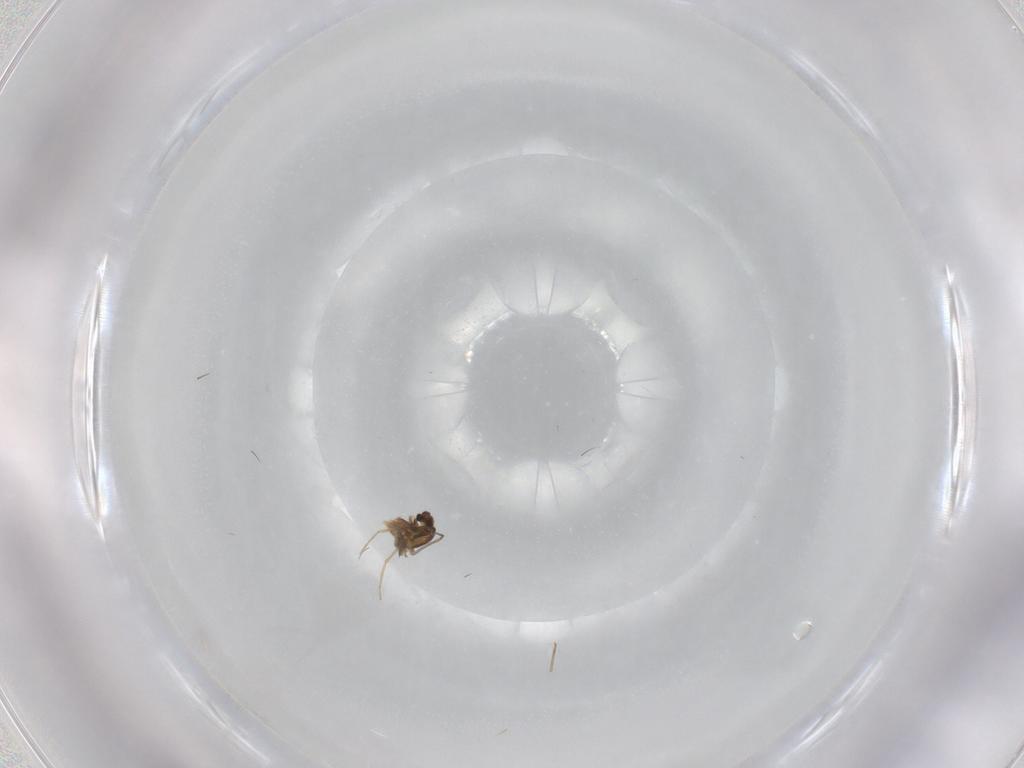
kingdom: Animalia
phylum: Arthropoda
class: Insecta
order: Diptera
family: Chironomidae
